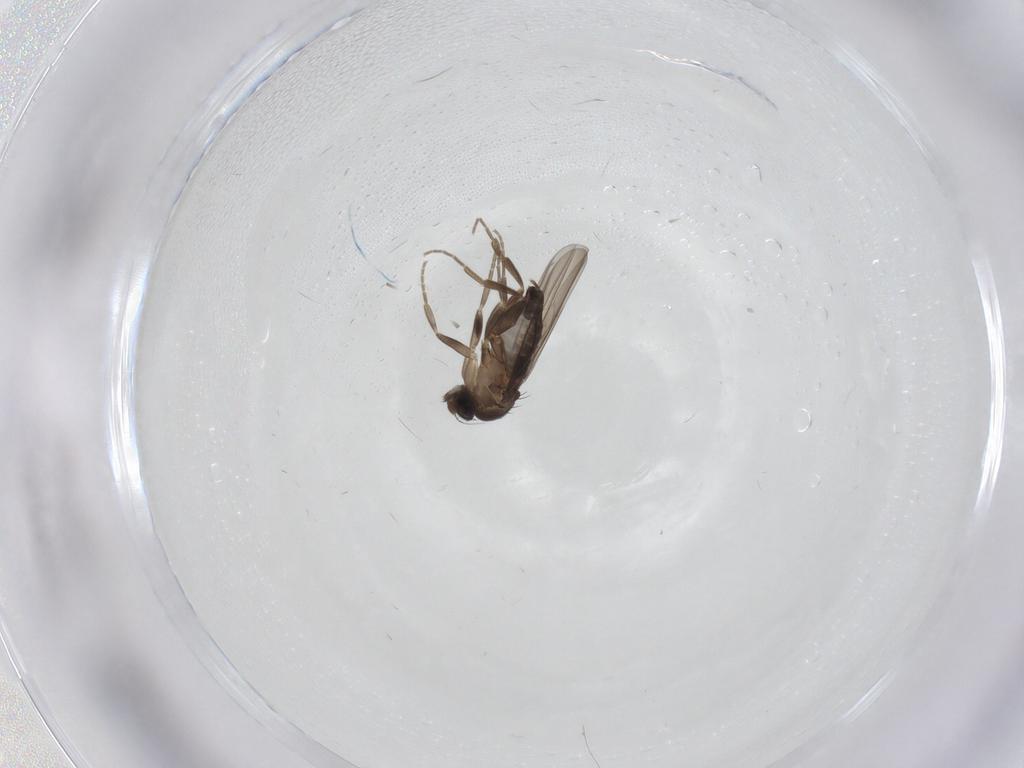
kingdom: Animalia
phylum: Arthropoda
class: Insecta
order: Diptera
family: Phoridae
